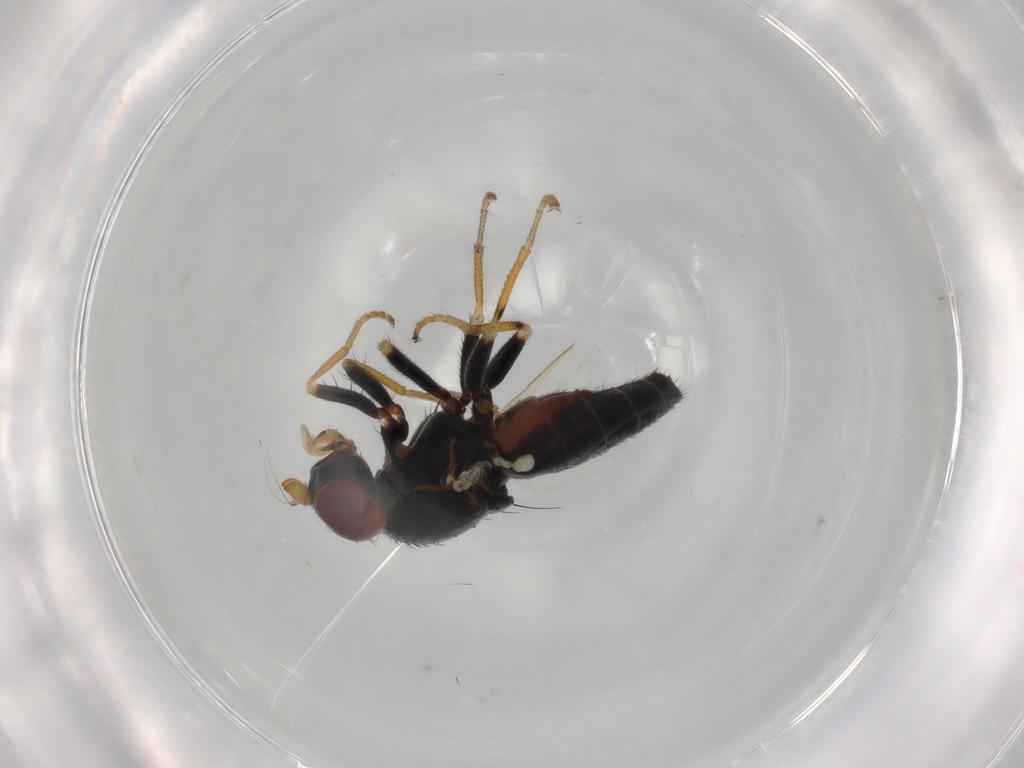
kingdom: Animalia
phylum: Arthropoda
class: Insecta
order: Diptera
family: Chamaemyiidae
